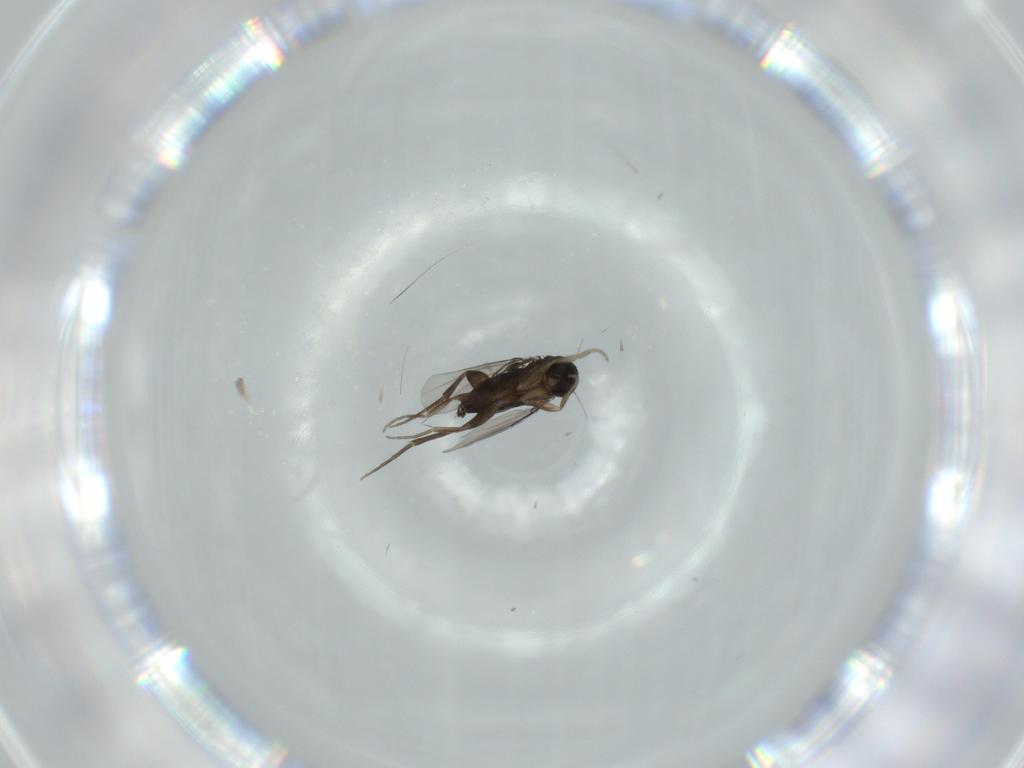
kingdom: Animalia
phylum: Arthropoda
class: Insecta
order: Diptera
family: Phoridae
